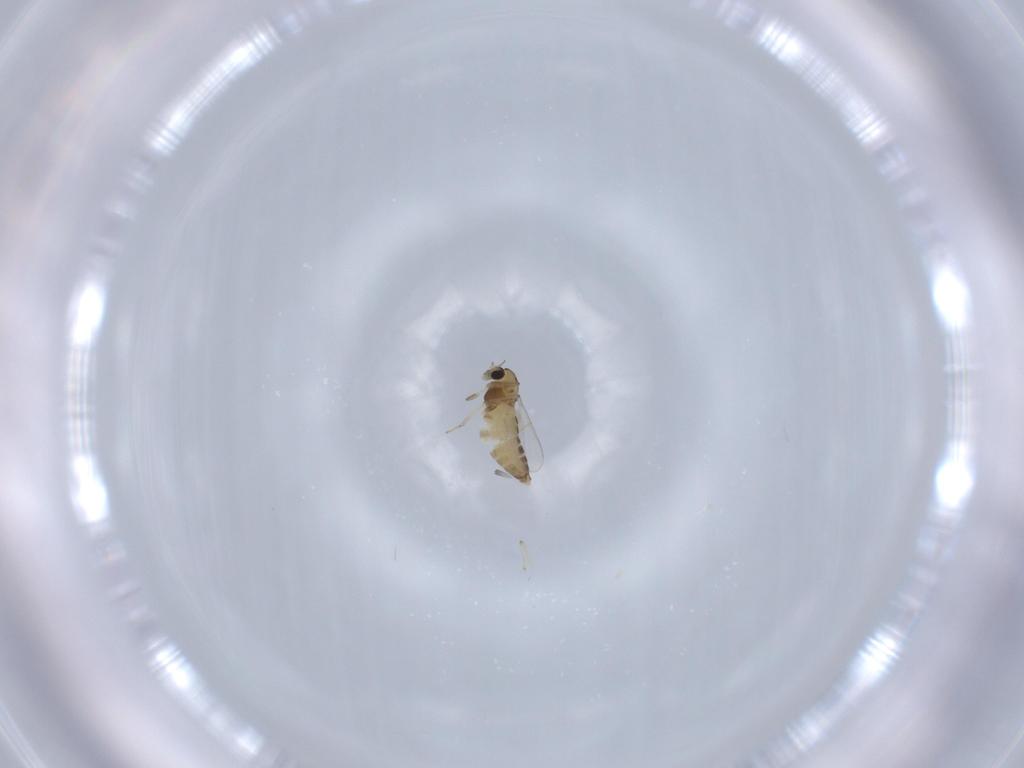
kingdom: Animalia
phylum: Arthropoda
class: Insecta
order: Diptera
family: Chironomidae
